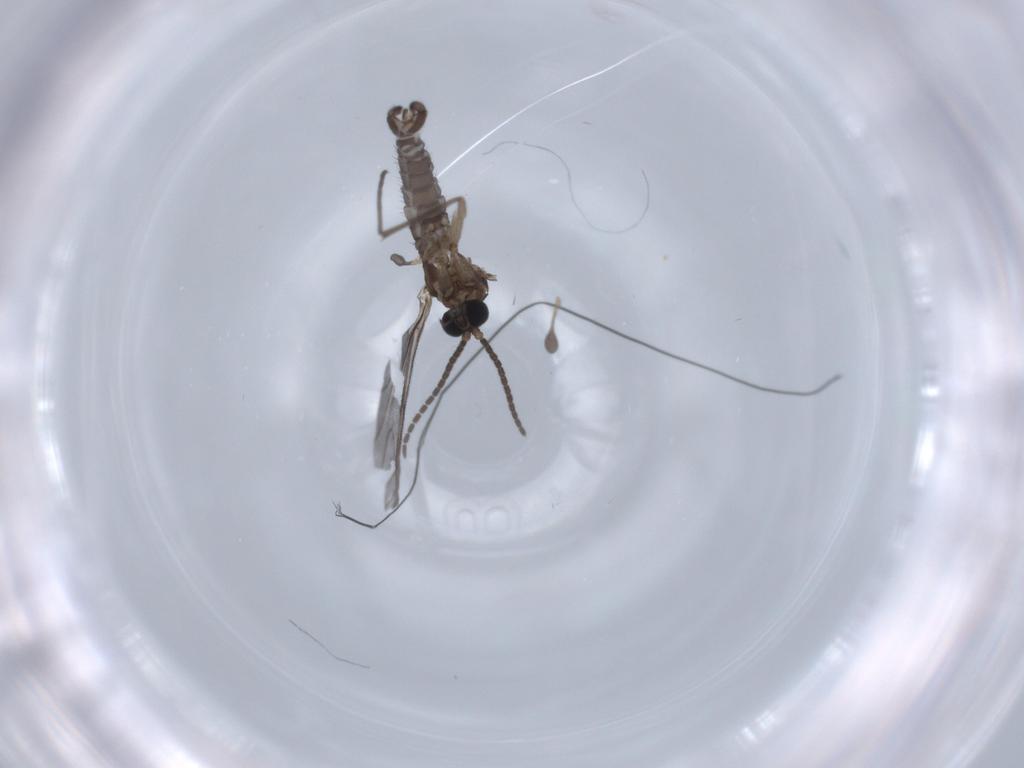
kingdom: Animalia
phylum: Arthropoda
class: Insecta
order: Diptera
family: Sciaridae
